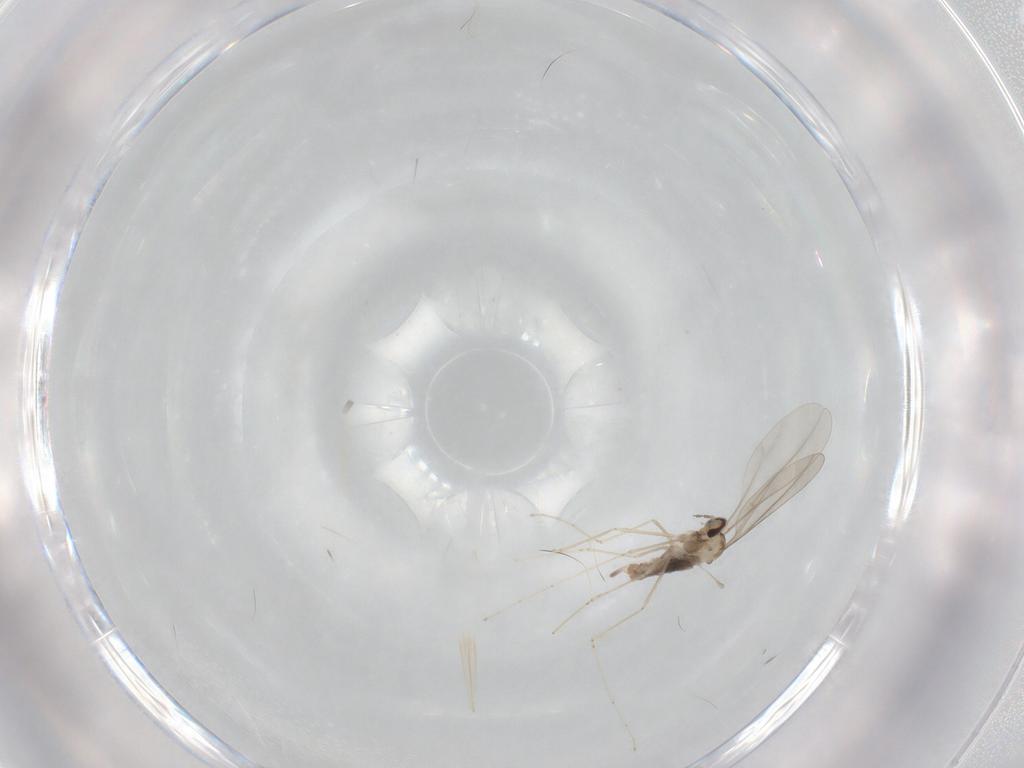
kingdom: Animalia
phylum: Arthropoda
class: Insecta
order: Diptera
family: Cecidomyiidae
